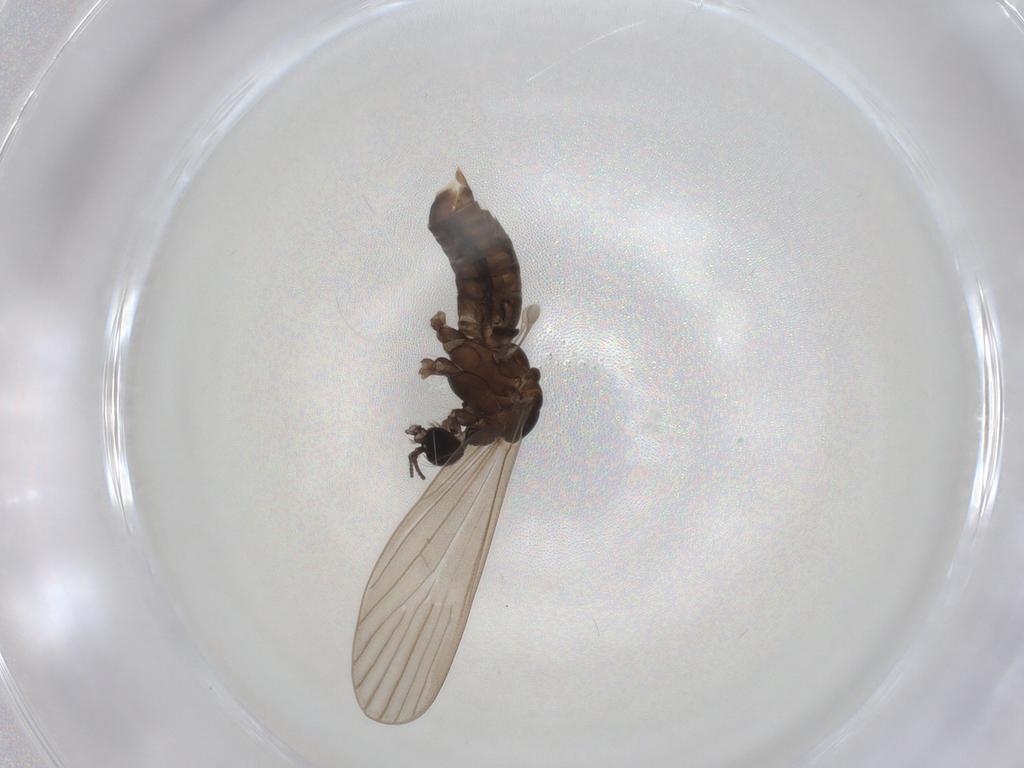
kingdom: Animalia
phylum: Arthropoda
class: Insecta
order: Diptera
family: Limoniidae
